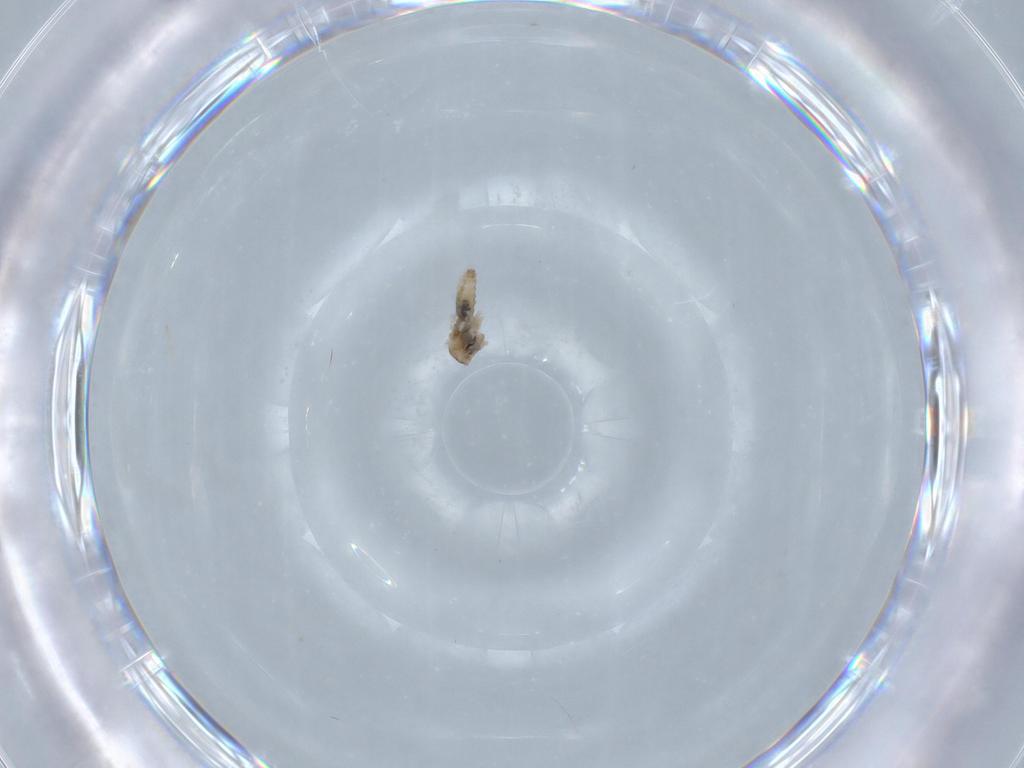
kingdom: Animalia
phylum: Arthropoda
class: Insecta
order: Diptera
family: Cecidomyiidae
